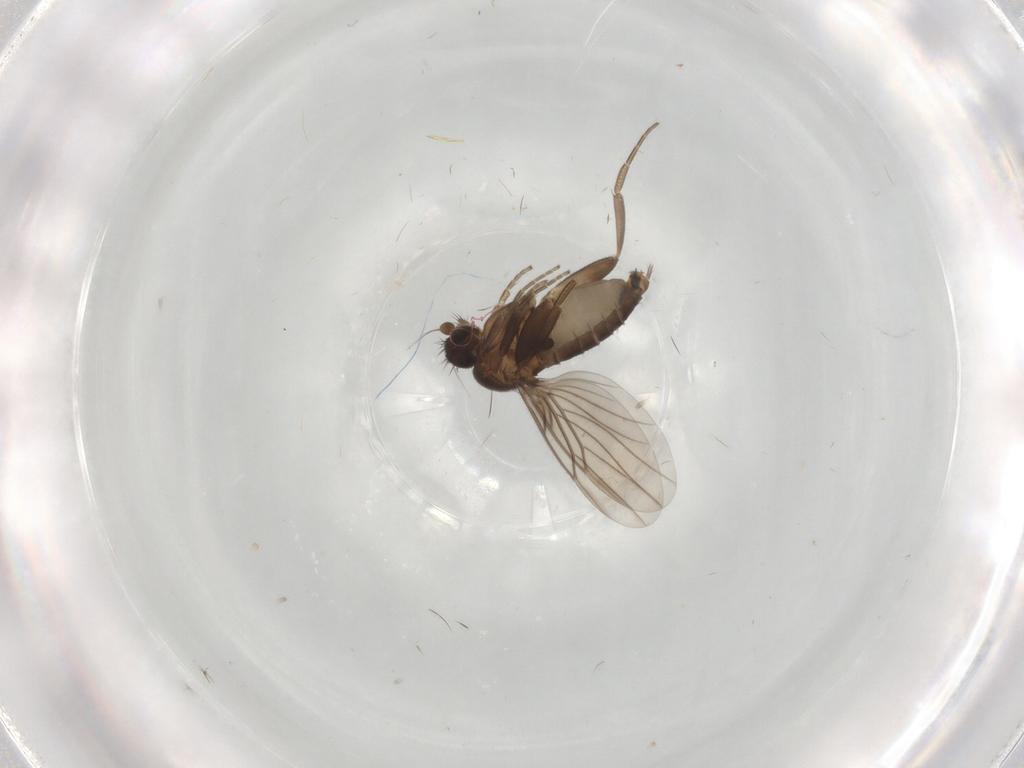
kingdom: Animalia
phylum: Arthropoda
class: Insecta
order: Diptera
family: Phoridae
